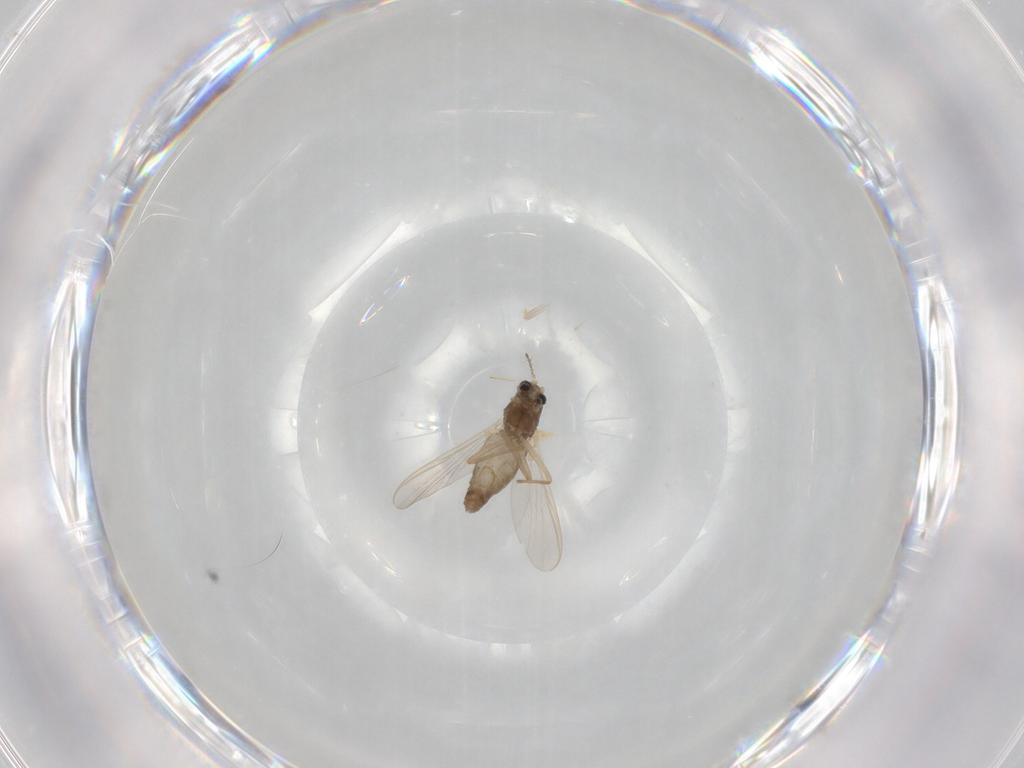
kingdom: Animalia
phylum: Arthropoda
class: Insecta
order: Diptera
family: Chironomidae
